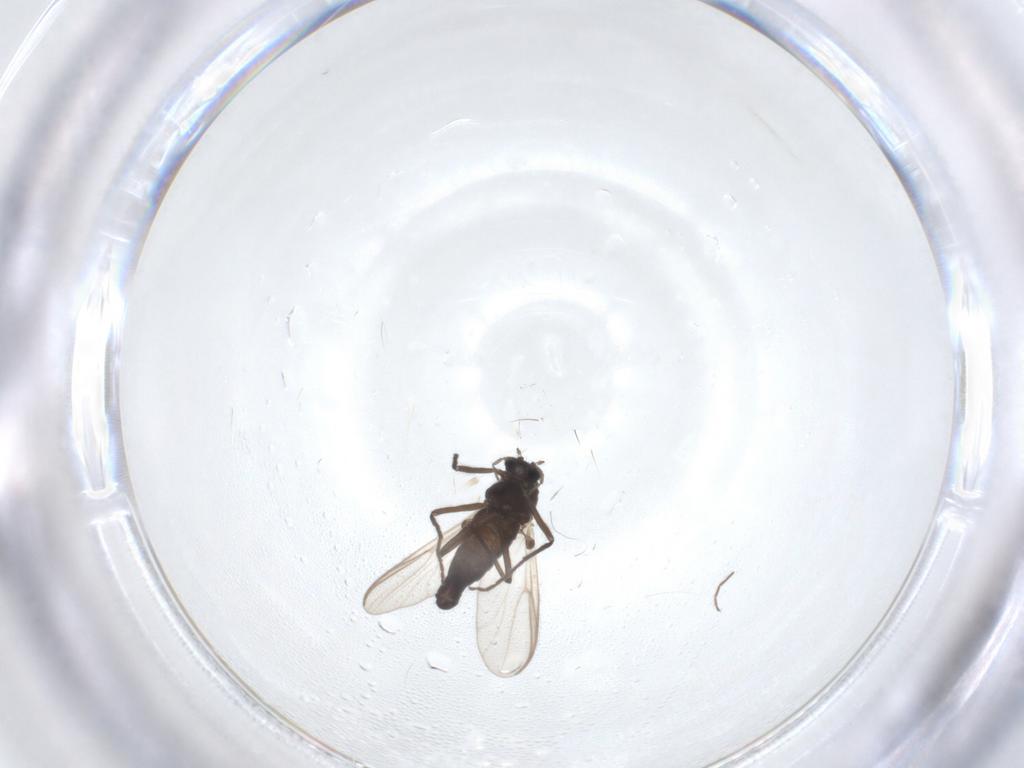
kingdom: Animalia
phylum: Arthropoda
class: Insecta
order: Diptera
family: Chironomidae
